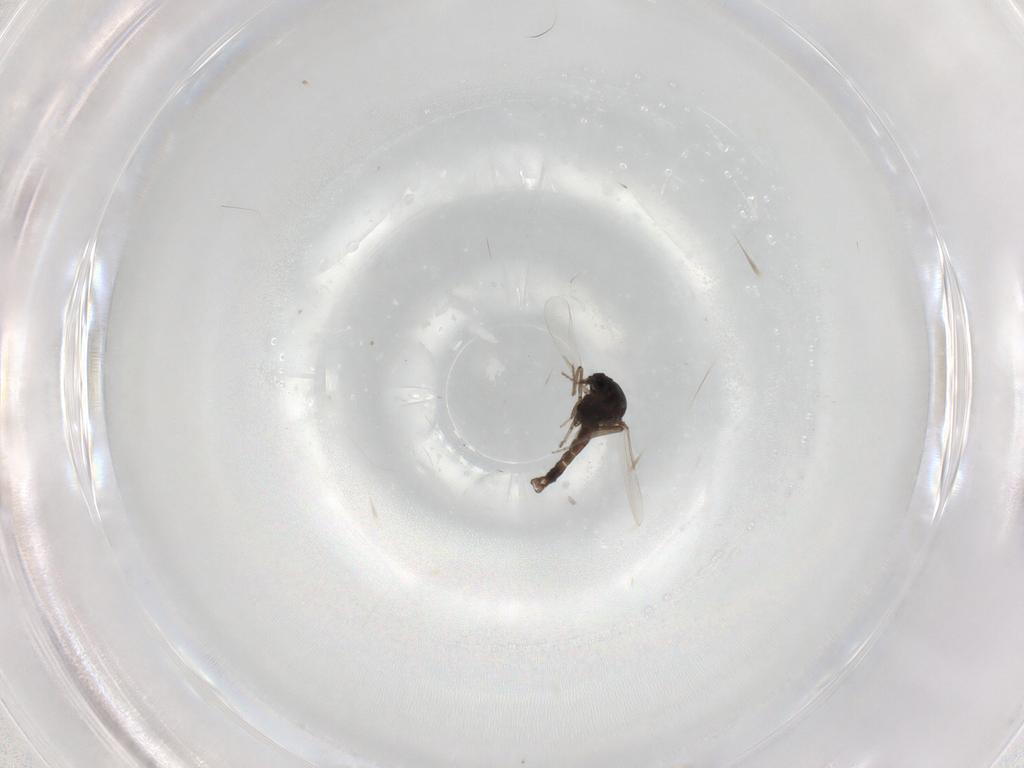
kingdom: Animalia
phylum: Arthropoda
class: Insecta
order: Diptera
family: Ceratopogonidae
